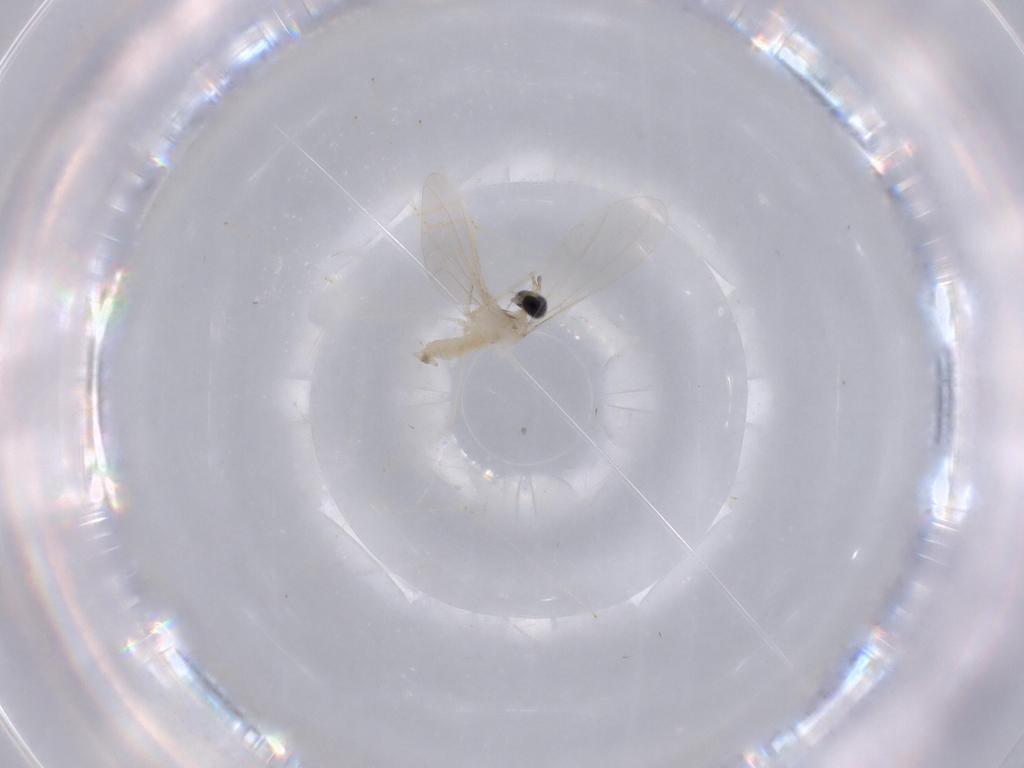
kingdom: Animalia
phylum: Arthropoda
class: Insecta
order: Diptera
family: Cecidomyiidae
